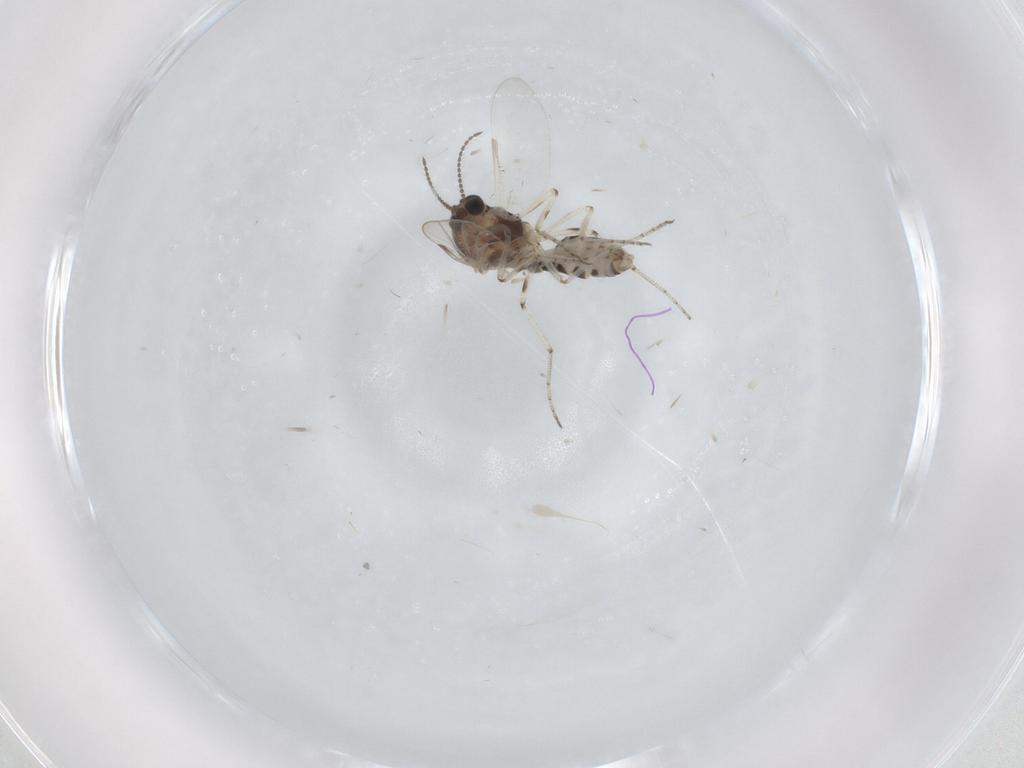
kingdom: Animalia
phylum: Arthropoda
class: Insecta
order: Diptera
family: Ceratopogonidae
